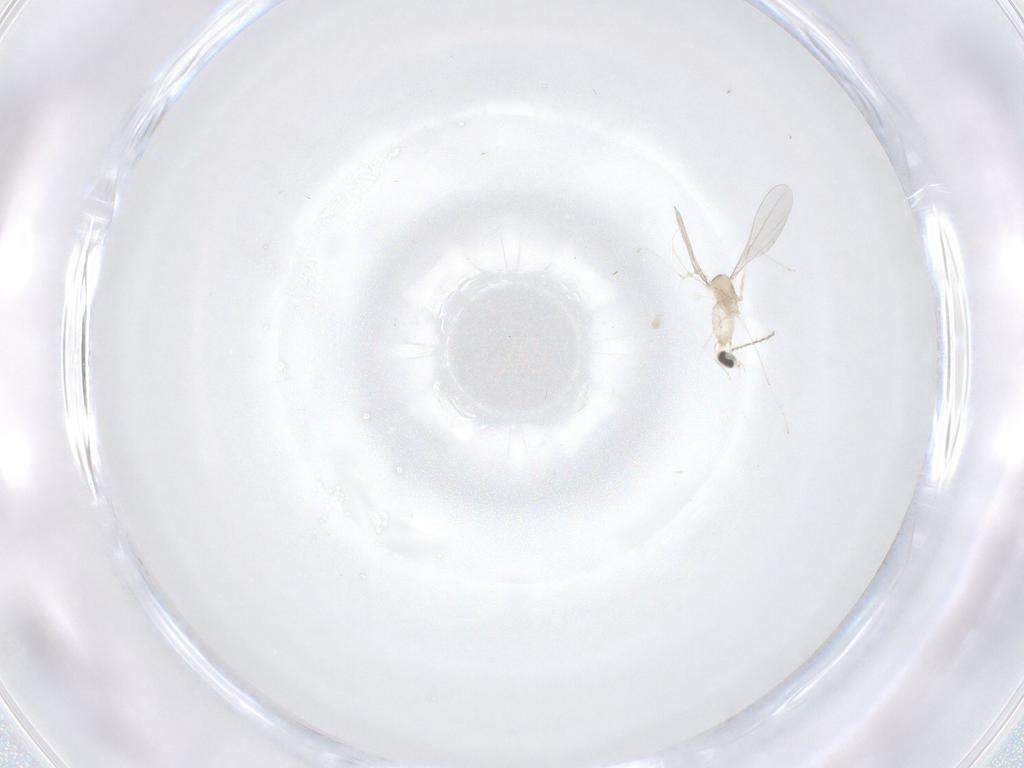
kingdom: Animalia
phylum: Arthropoda
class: Insecta
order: Diptera
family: Cecidomyiidae
